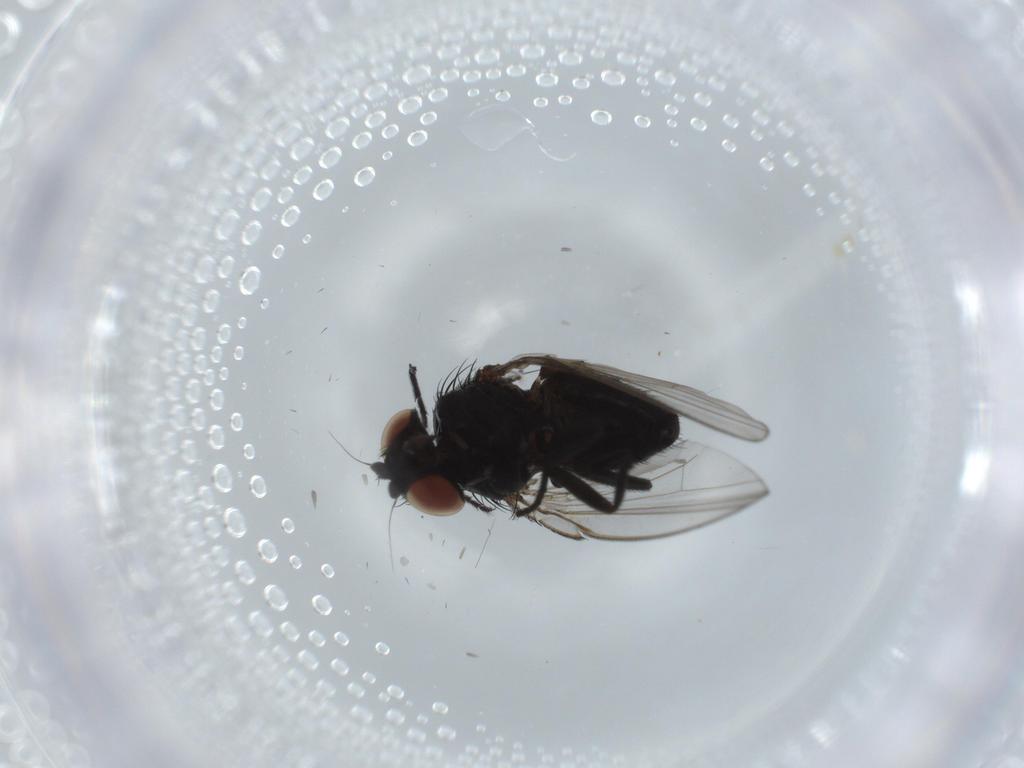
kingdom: Animalia
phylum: Arthropoda
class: Insecta
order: Diptera
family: Milichiidae
